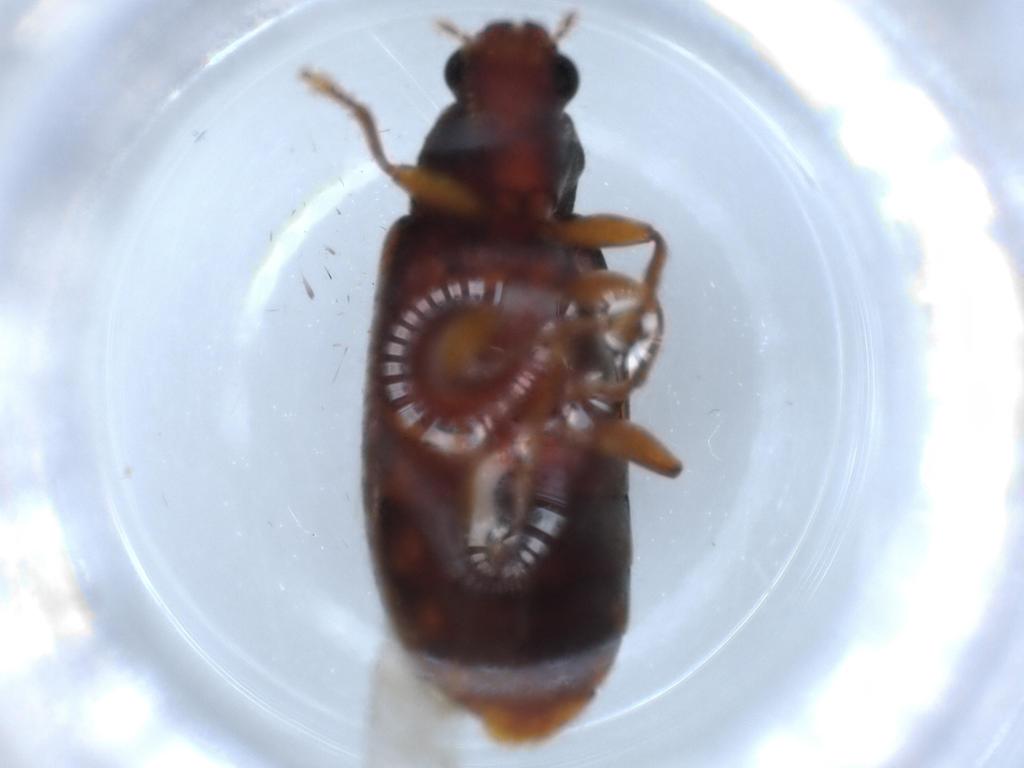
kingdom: Animalia
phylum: Arthropoda
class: Insecta
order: Coleoptera
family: Mycteridae
